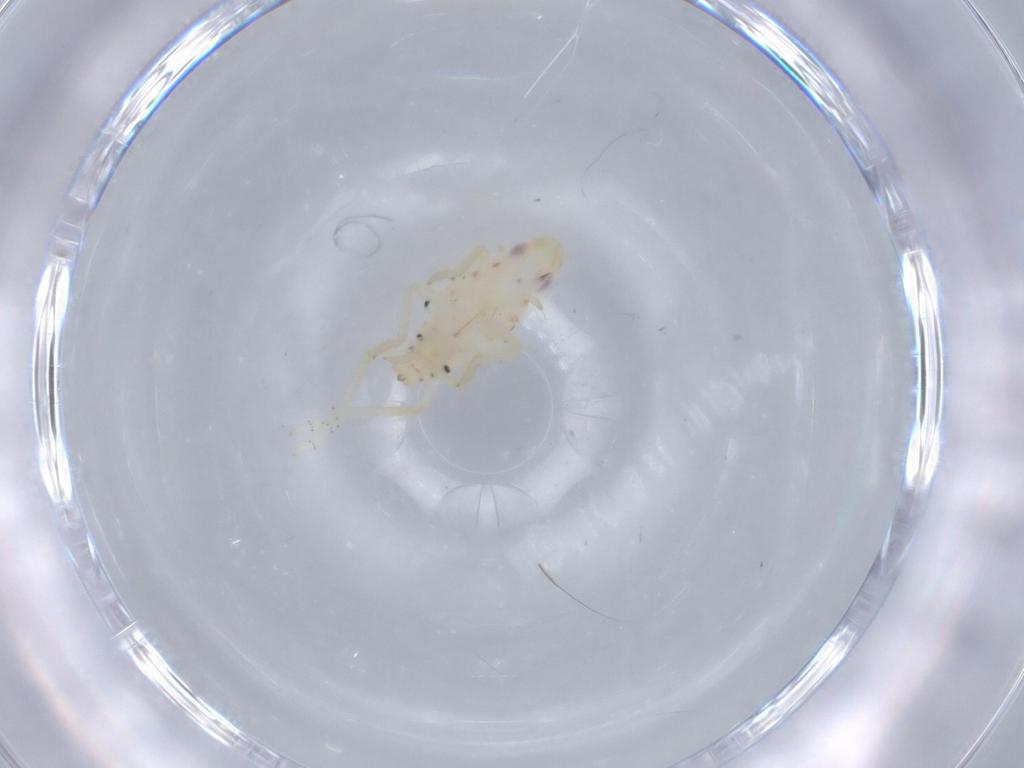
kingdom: Animalia
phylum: Arthropoda
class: Insecta
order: Hemiptera
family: Tropiduchidae
